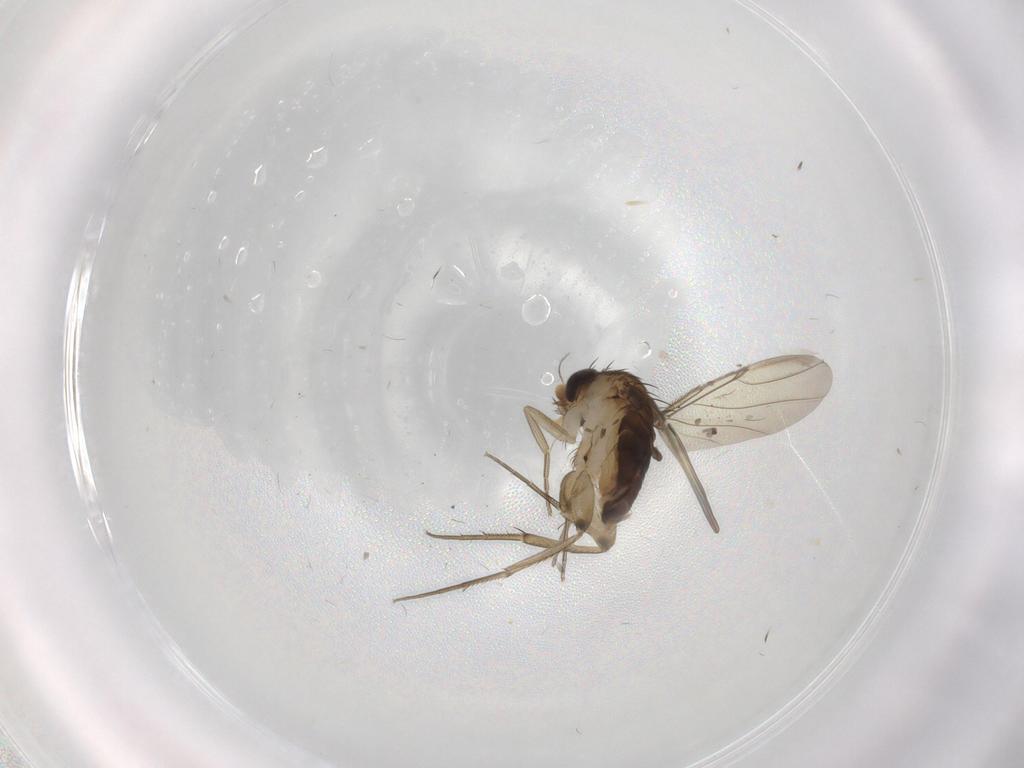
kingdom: Animalia
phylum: Arthropoda
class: Insecta
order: Diptera
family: Phoridae
